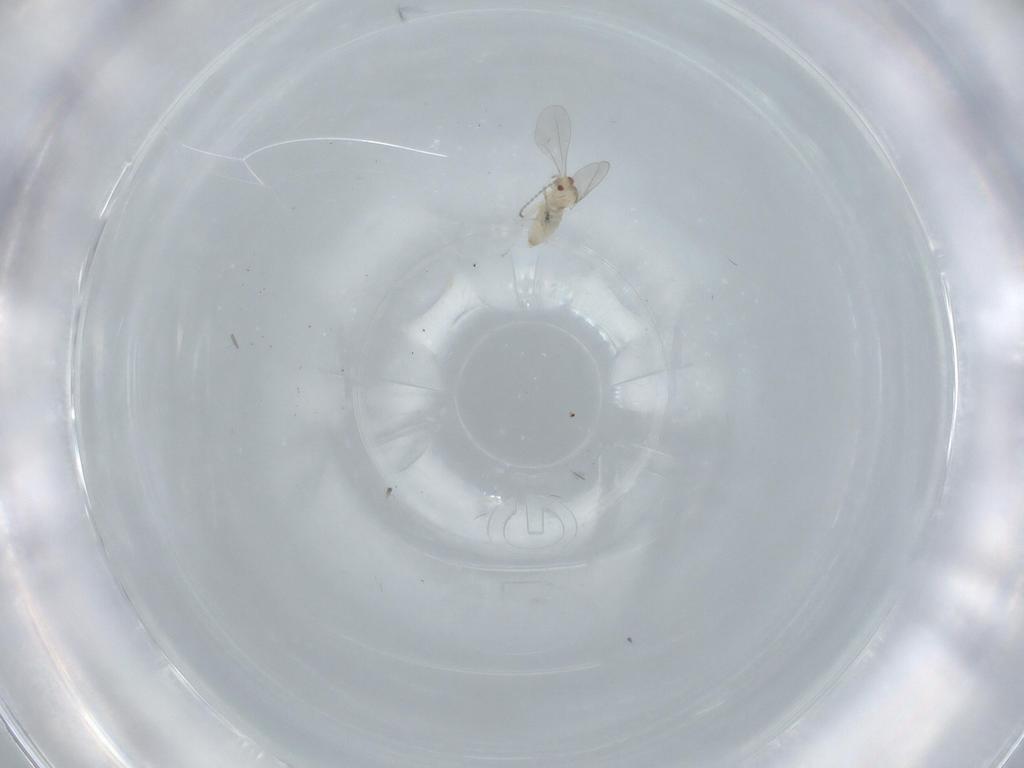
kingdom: Animalia
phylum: Arthropoda
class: Insecta
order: Diptera
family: Cecidomyiidae
